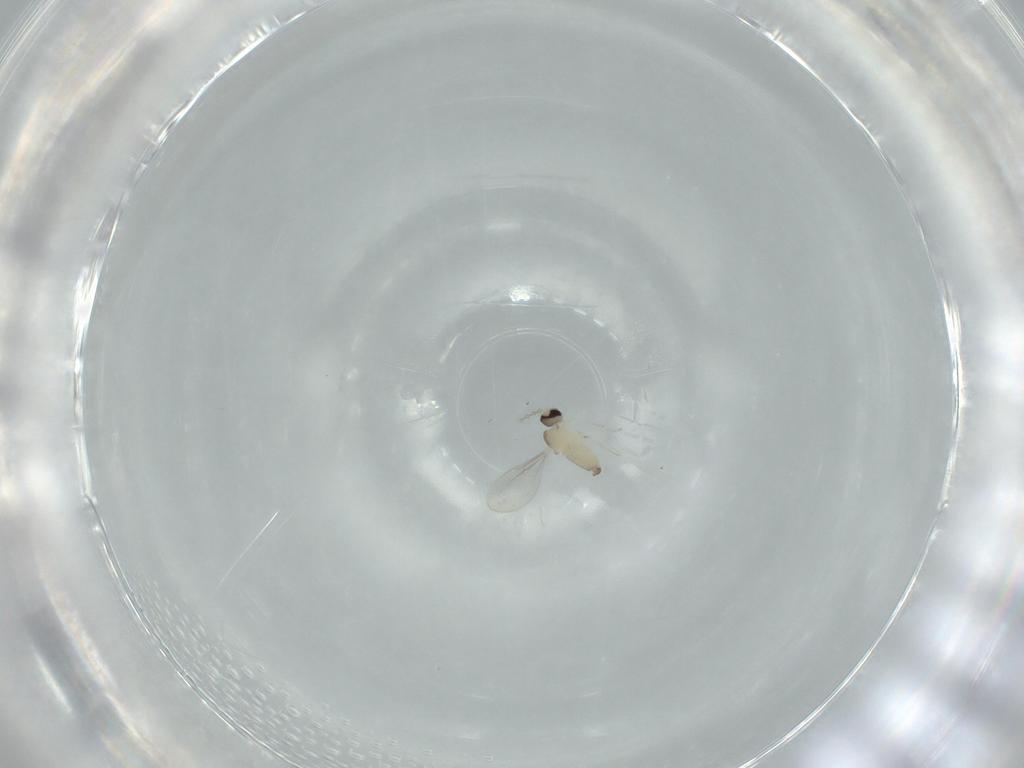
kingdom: Animalia
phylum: Arthropoda
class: Insecta
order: Diptera
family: Psychodidae
